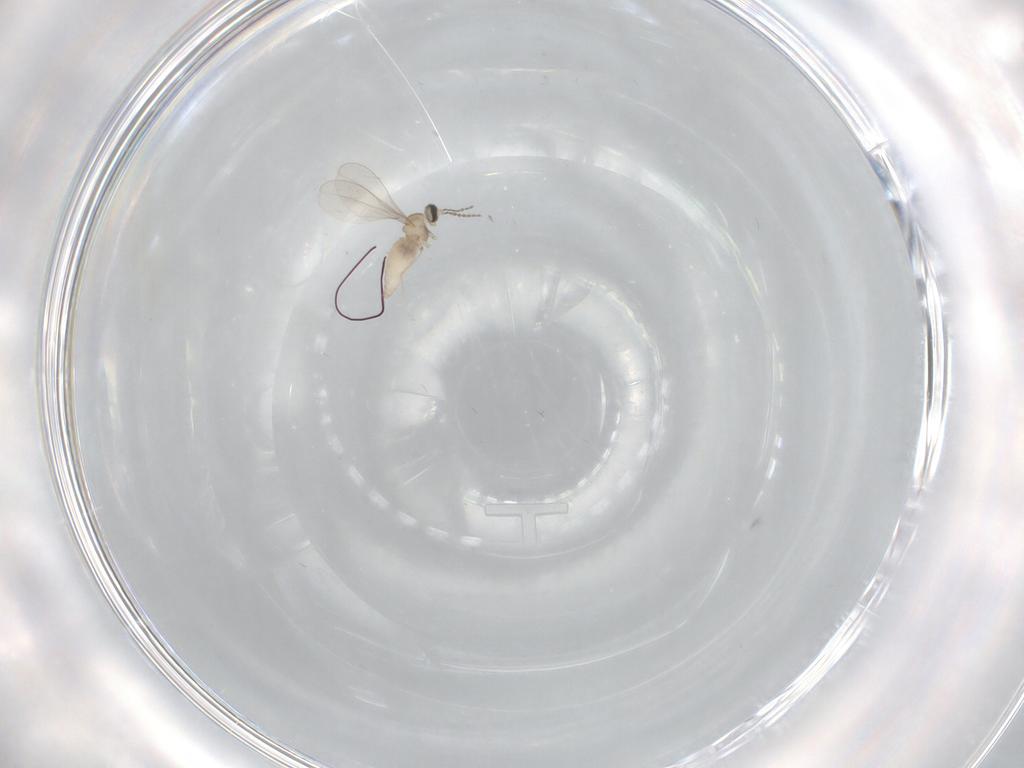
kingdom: Animalia
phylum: Arthropoda
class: Insecta
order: Diptera
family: Cecidomyiidae
